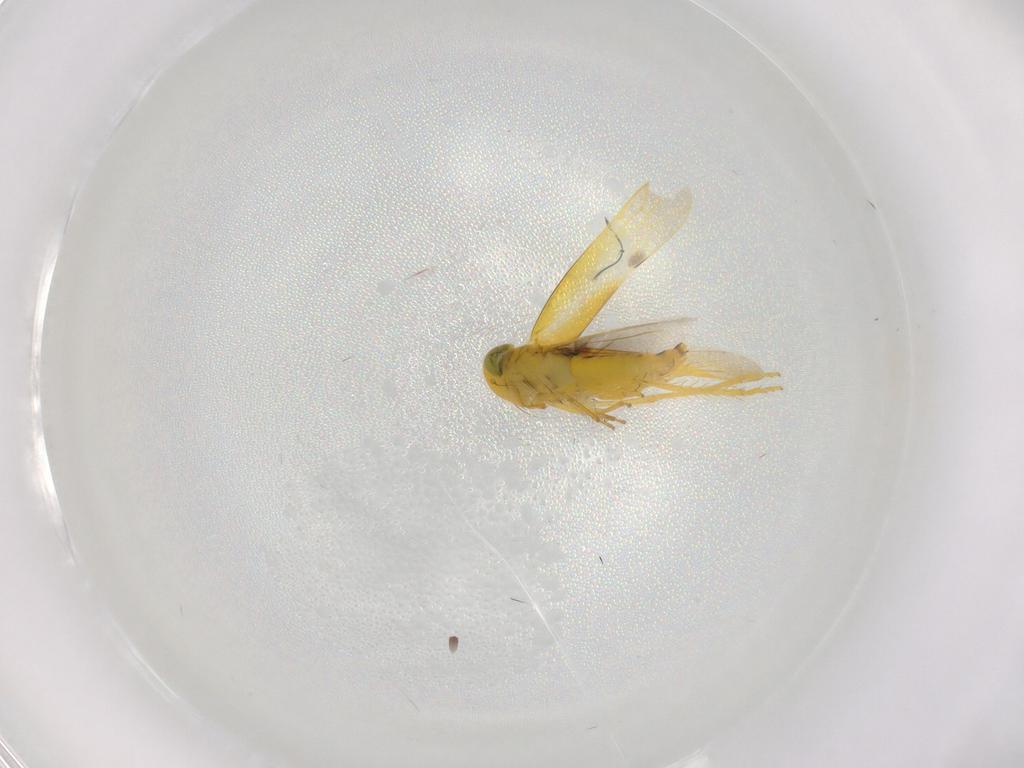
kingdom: Animalia
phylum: Arthropoda
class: Insecta
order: Hemiptera
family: Cicadellidae
